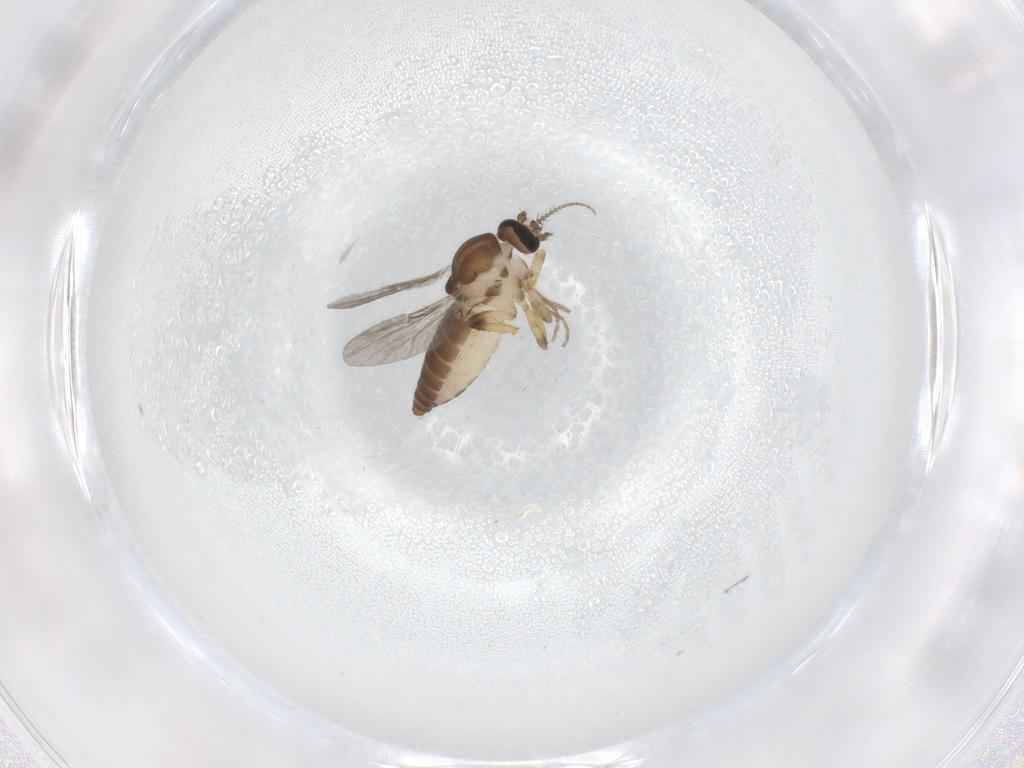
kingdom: Animalia
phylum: Arthropoda
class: Insecta
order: Diptera
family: Ceratopogonidae
